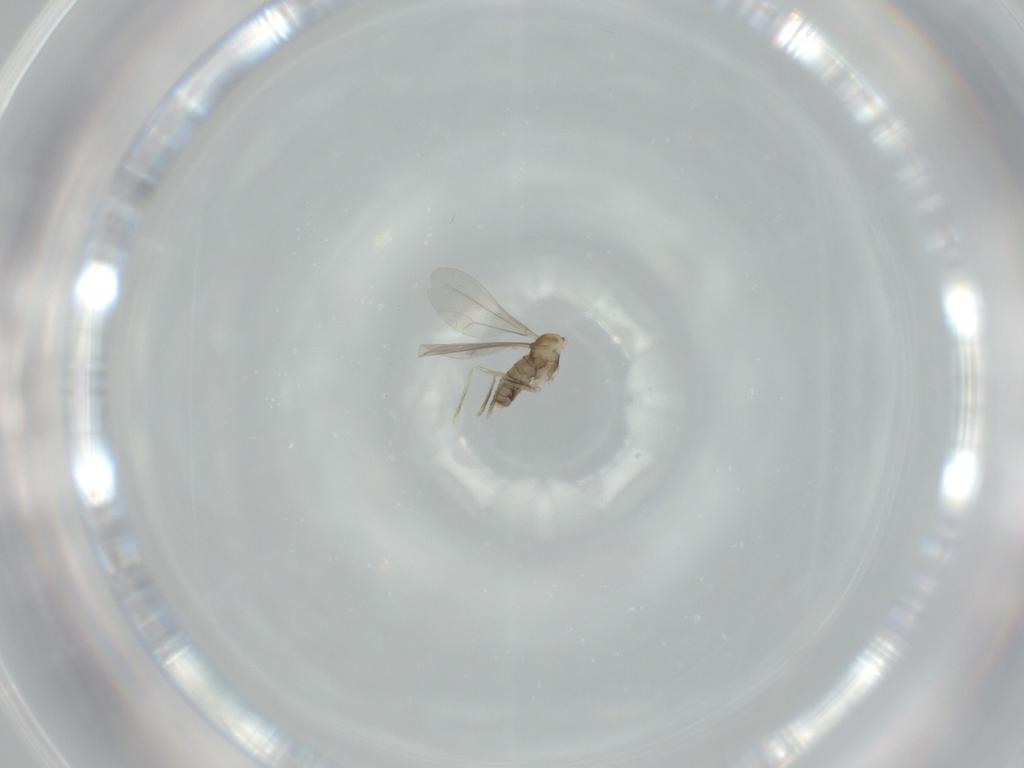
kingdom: Animalia
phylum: Arthropoda
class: Insecta
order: Diptera
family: Cecidomyiidae
